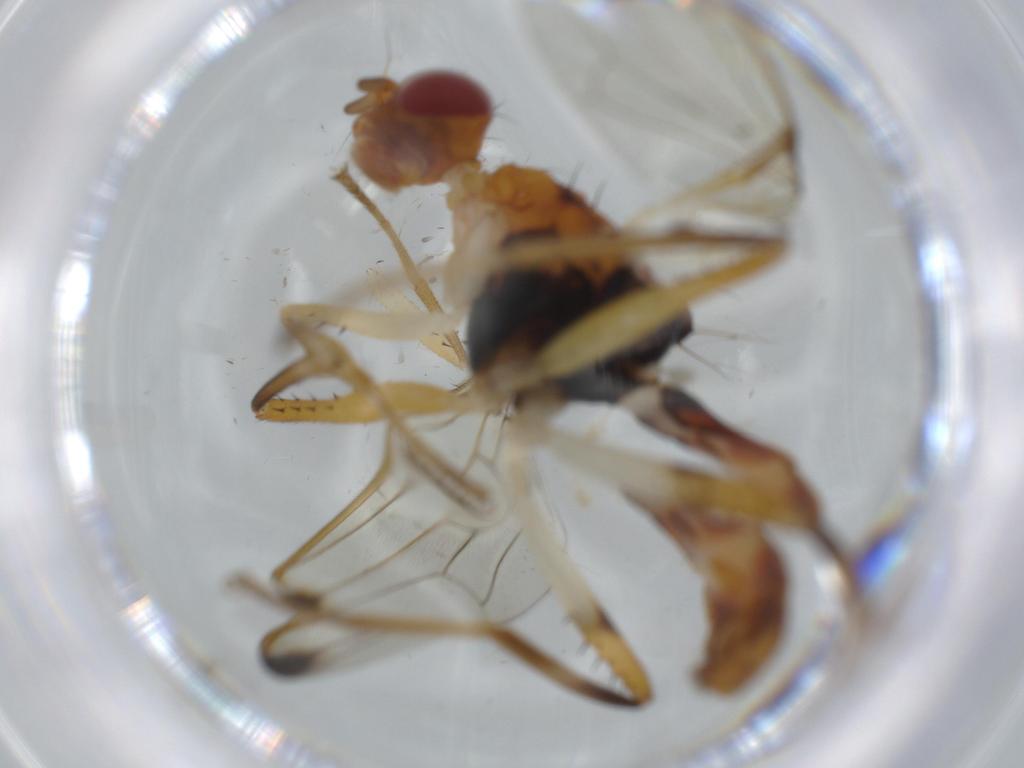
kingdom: Animalia
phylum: Arthropoda
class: Insecta
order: Diptera
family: Richardiidae
